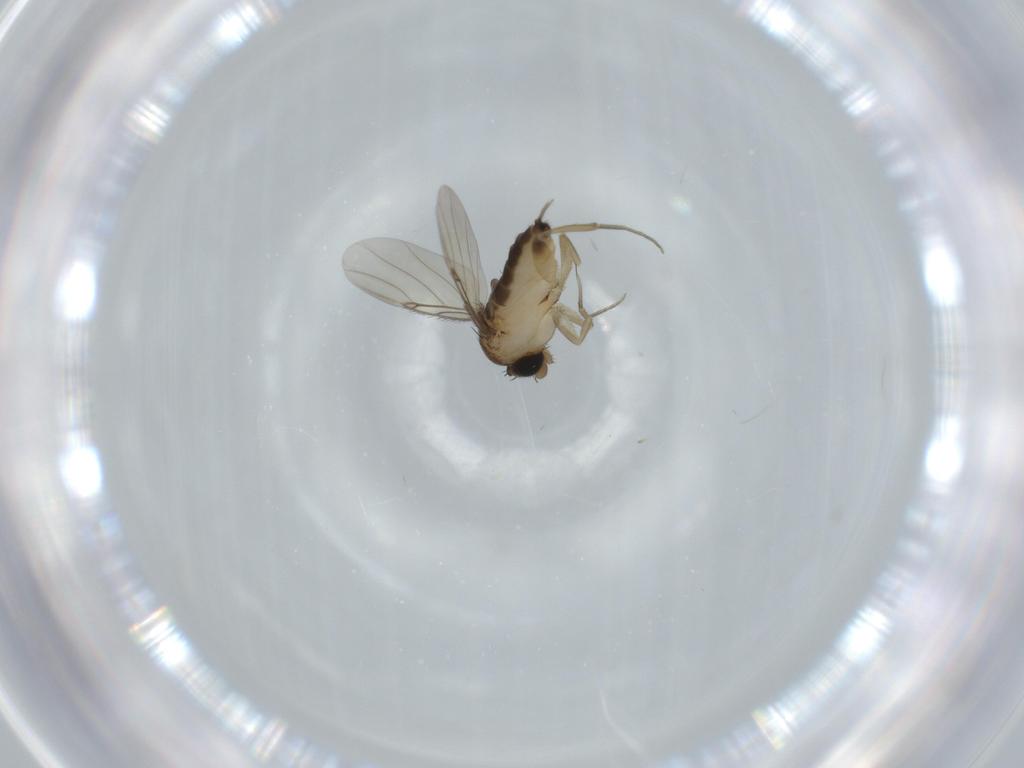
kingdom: Animalia
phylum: Arthropoda
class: Insecta
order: Diptera
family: Phoridae
